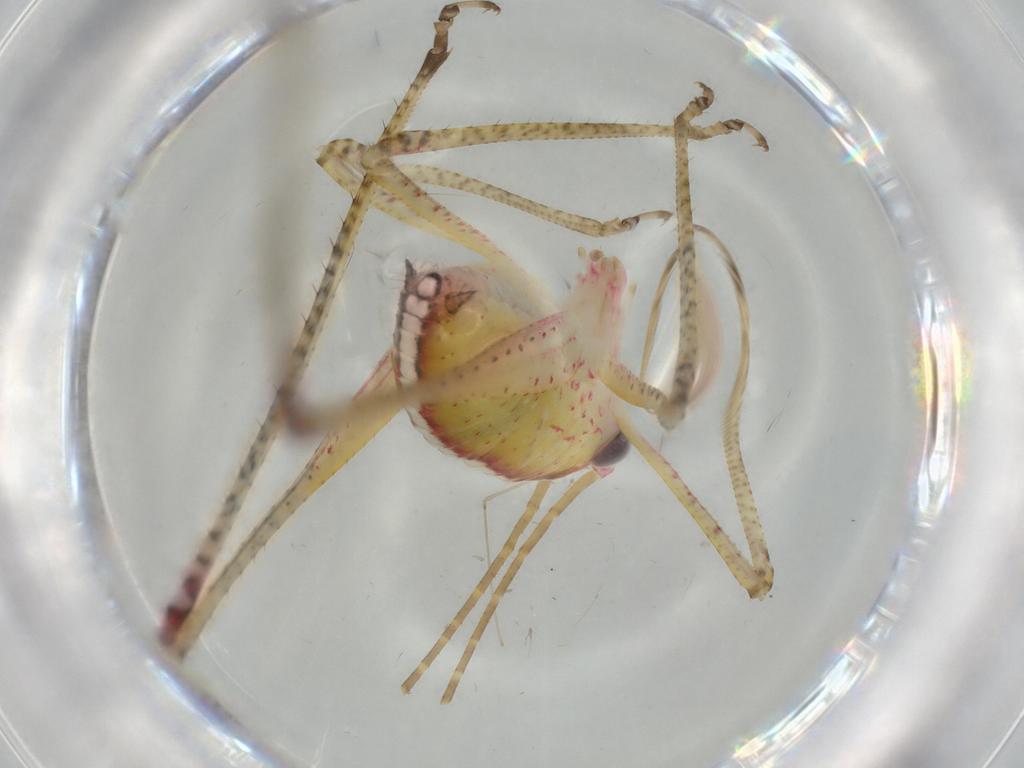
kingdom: Animalia
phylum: Arthropoda
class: Insecta
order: Orthoptera
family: Tettigoniidae
